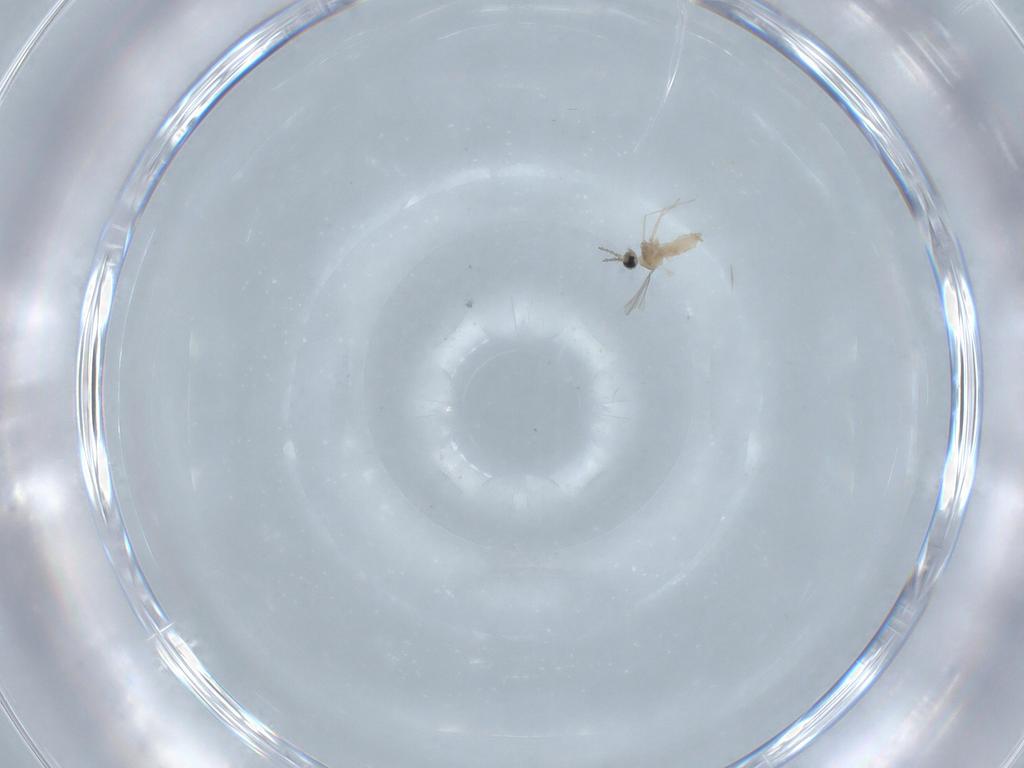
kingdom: Animalia
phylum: Arthropoda
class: Insecta
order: Diptera
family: Cecidomyiidae
